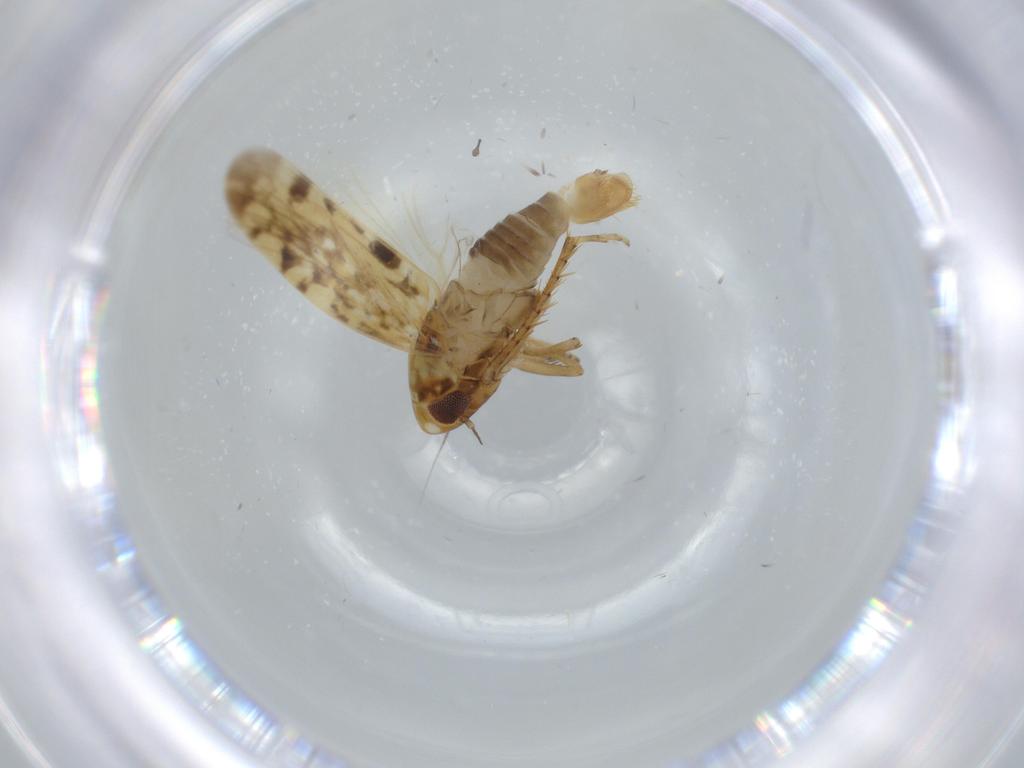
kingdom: Animalia
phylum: Arthropoda
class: Insecta
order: Hemiptera
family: Cicadellidae
